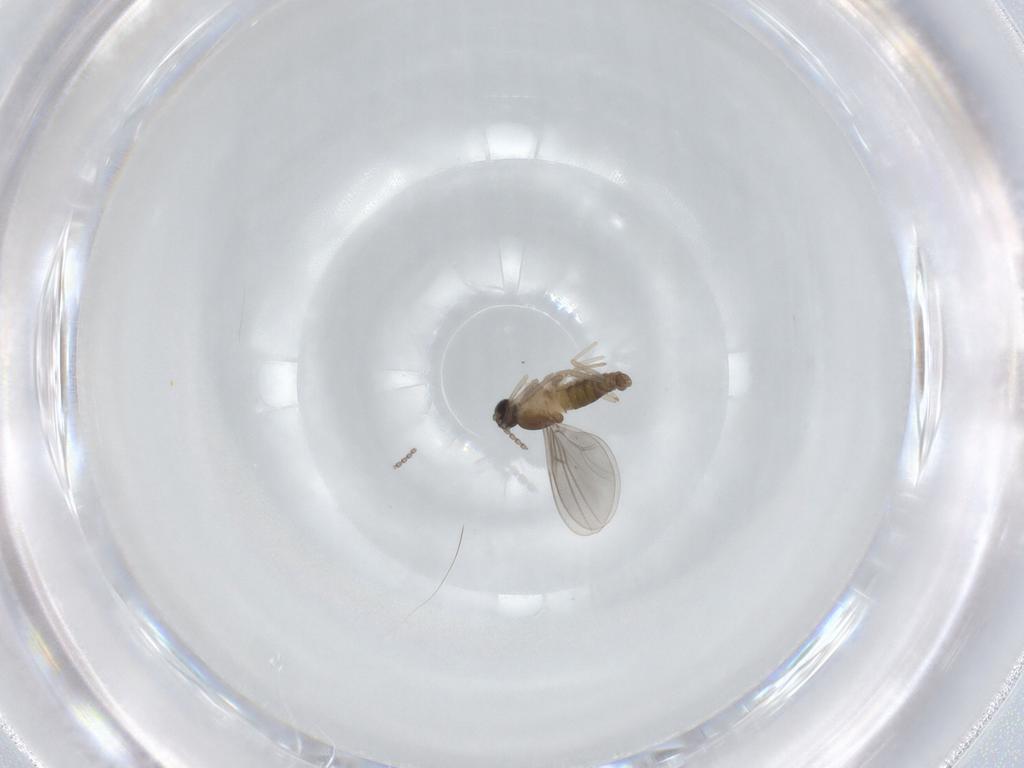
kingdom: Animalia
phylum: Arthropoda
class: Insecta
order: Diptera
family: Cecidomyiidae
